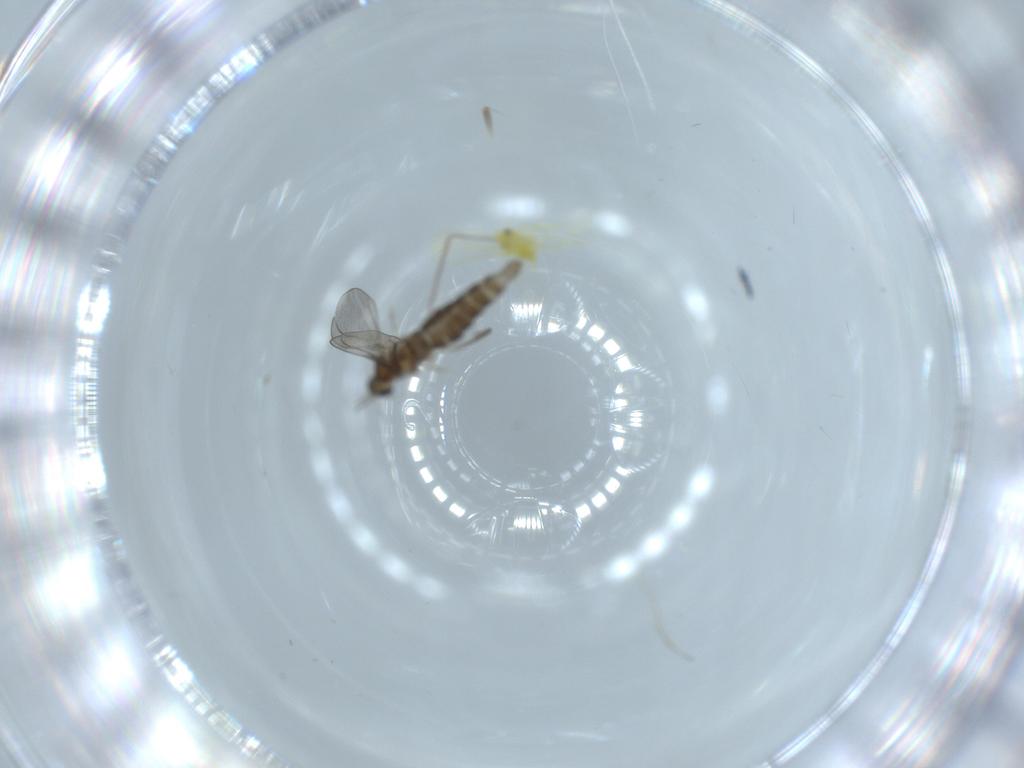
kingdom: Animalia
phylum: Arthropoda
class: Insecta
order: Diptera
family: Cecidomyiidae
